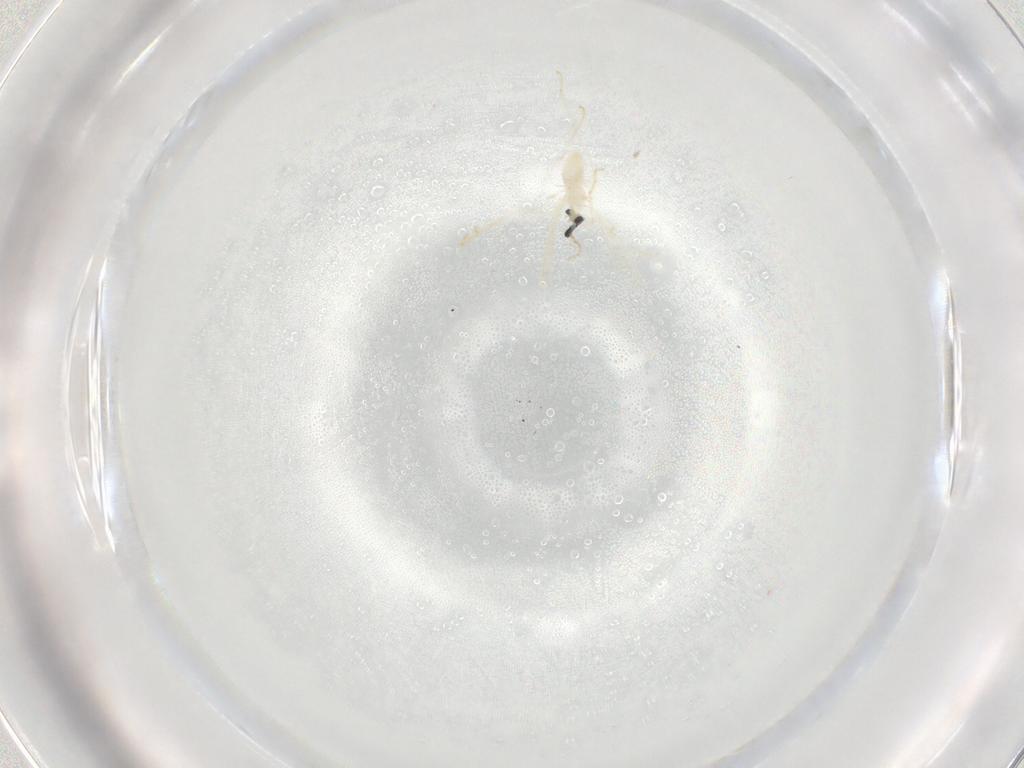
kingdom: Animalia
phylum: Arthropoda
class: Insecta
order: Diptera
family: Cecidomyiidae
